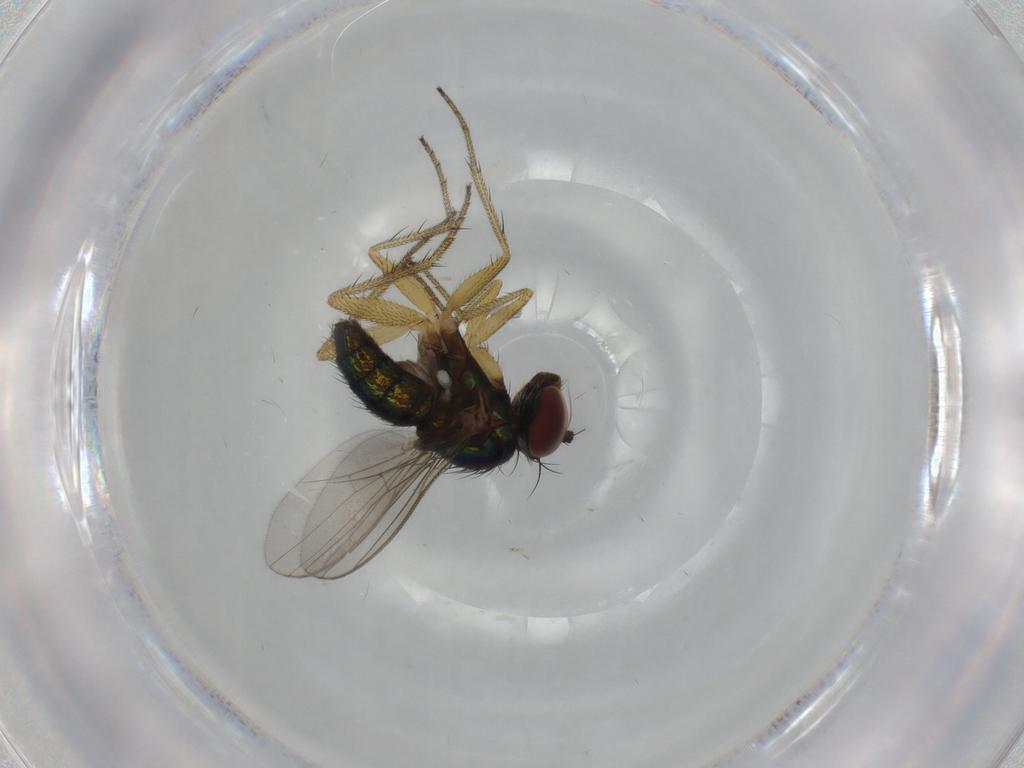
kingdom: Animalia
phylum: Arthropoda
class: Insecta
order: Diptera
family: Dolichopodidae
